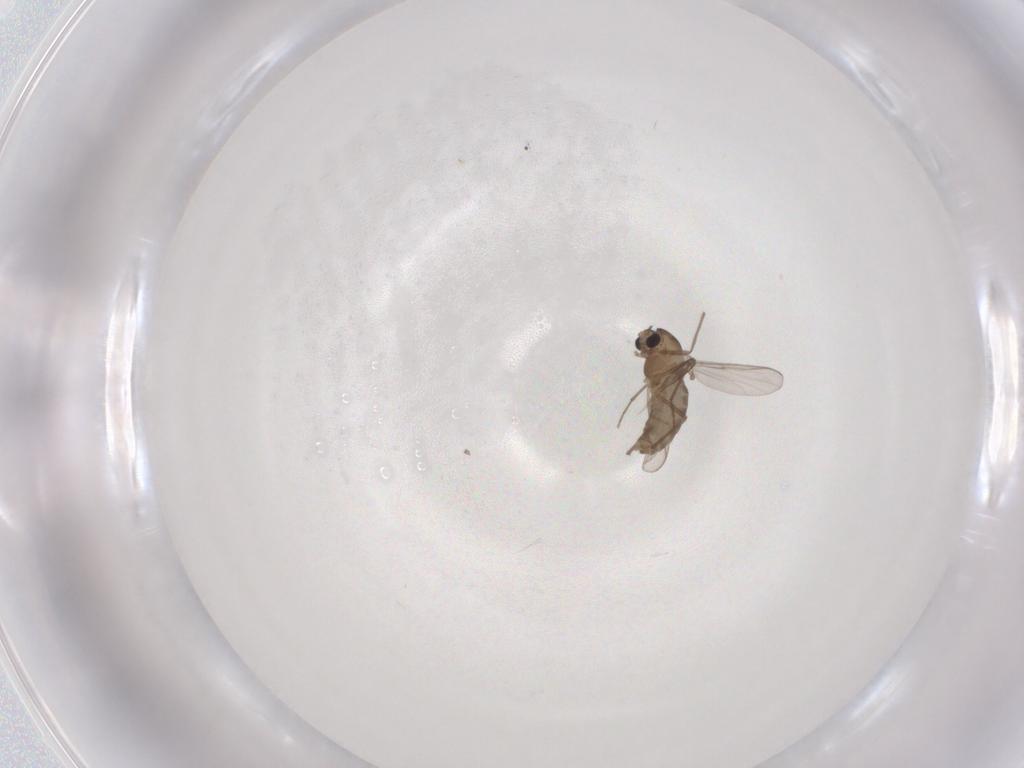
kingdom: Animalia
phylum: Arthropoda
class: Insecta
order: Diptera
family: Chironomidae
